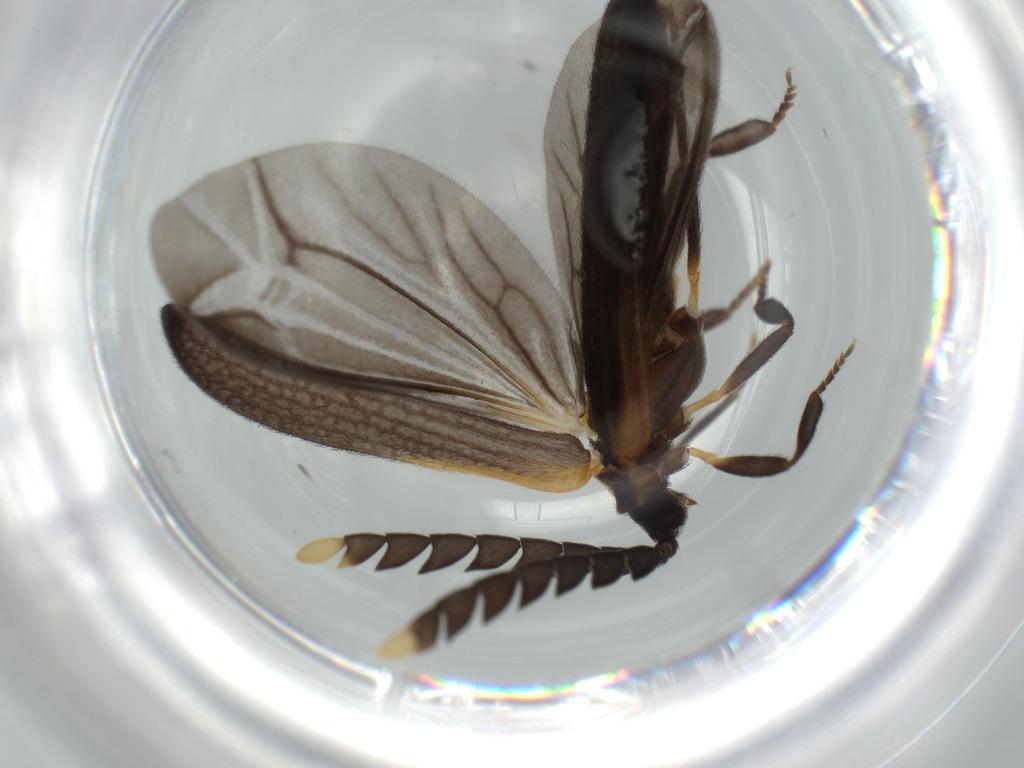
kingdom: Animalia
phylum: Arthropoda
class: Insecta
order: Coleoptera
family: Lycidae
